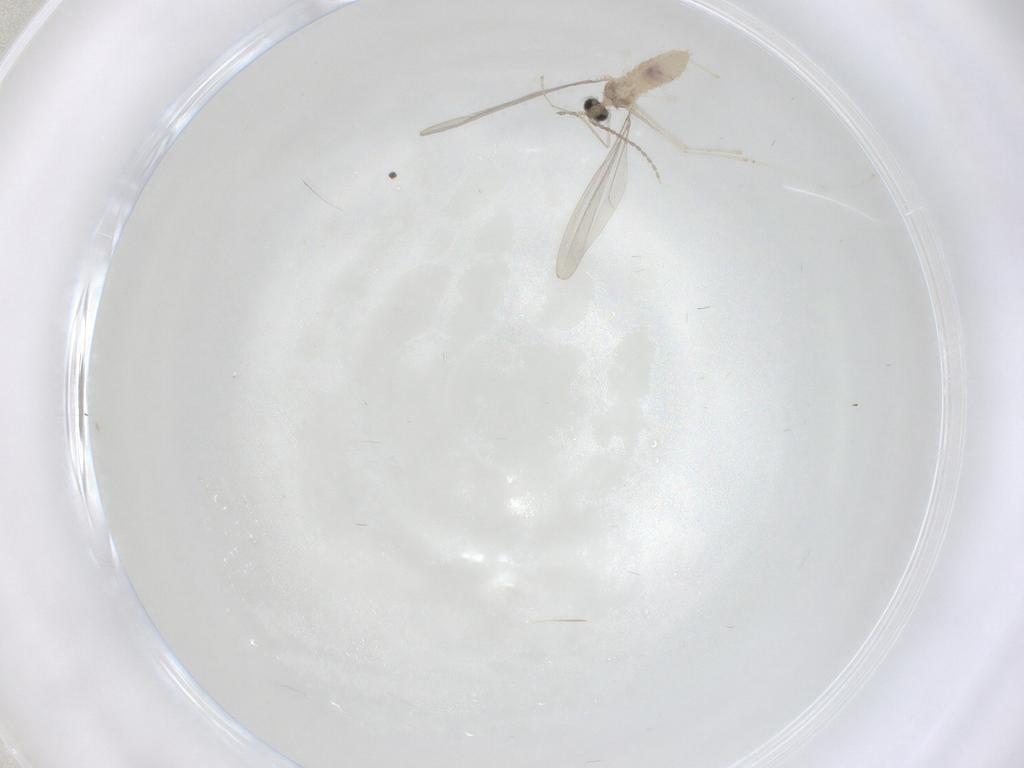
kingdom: Animalia
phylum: Arthropoda
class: Insecta
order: Diptera
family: Cecidomyiidae
